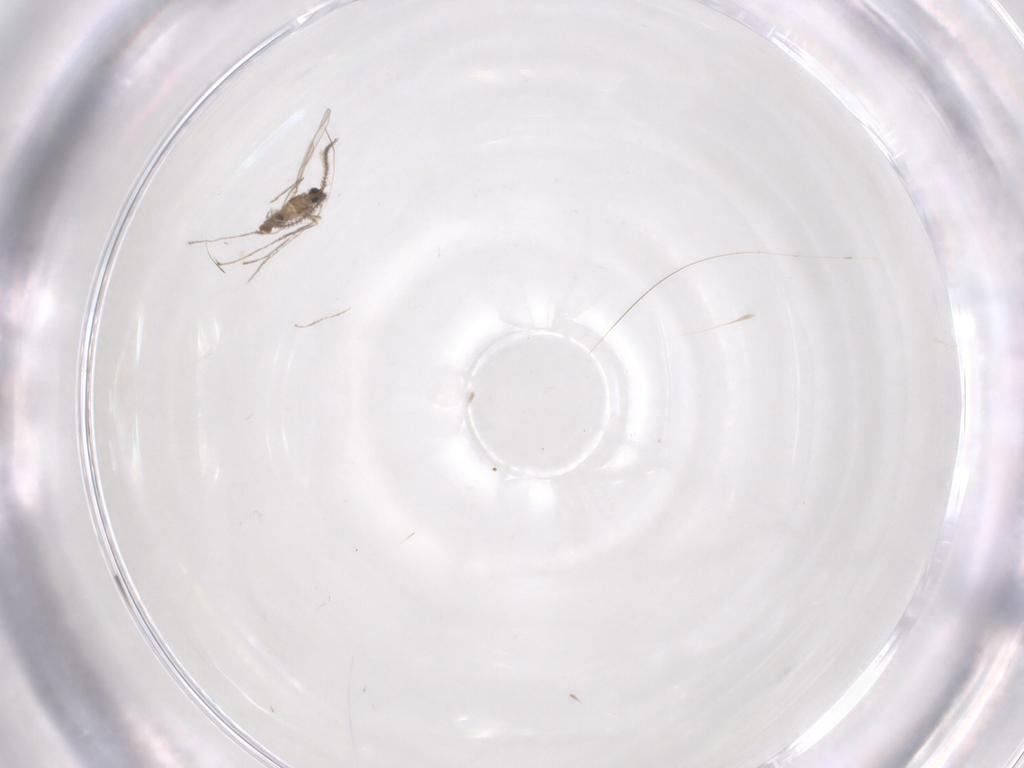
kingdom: Animalia
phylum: Arthropoda
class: Insecta
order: Diptera
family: Cecidomyiidae
